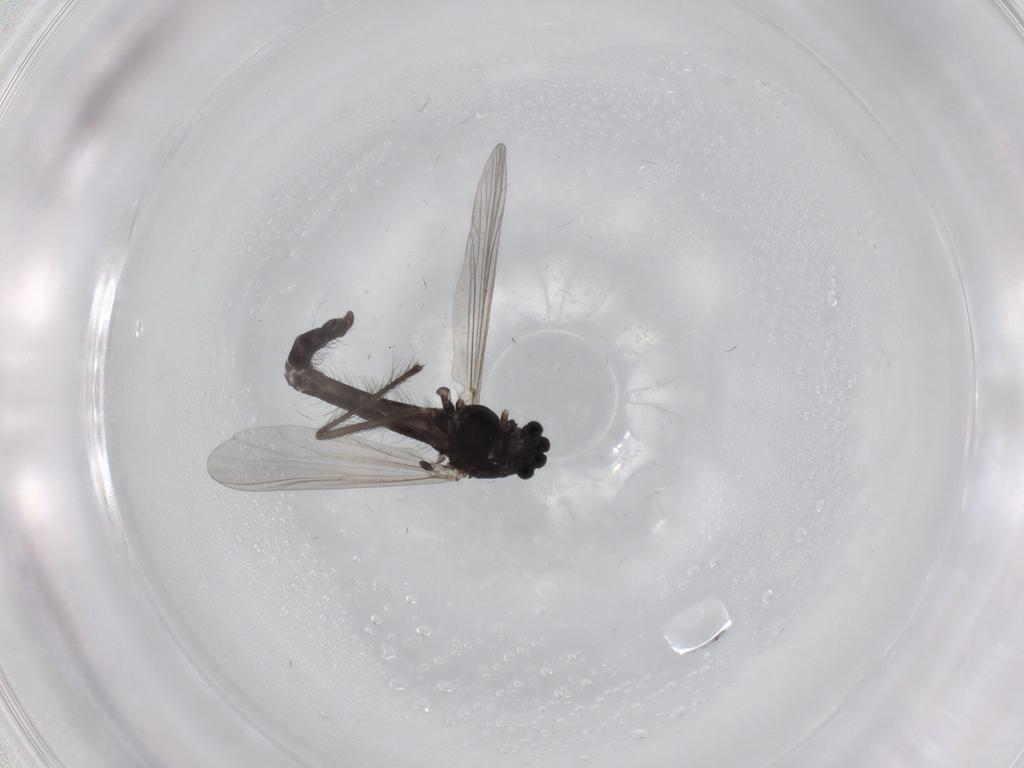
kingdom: Animalia
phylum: Arthropoda
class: Insecta
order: Diptera
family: Chironomidae
